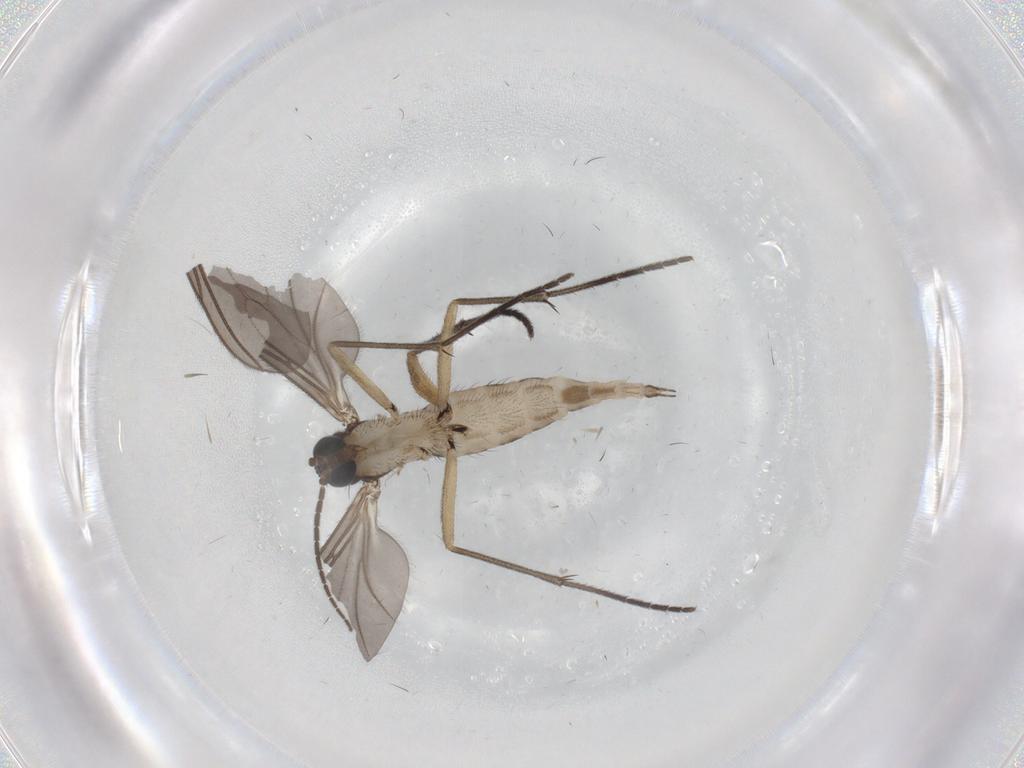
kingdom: Animalia
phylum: Arthropoda
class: Insecta
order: Diptera
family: Sciaridae
